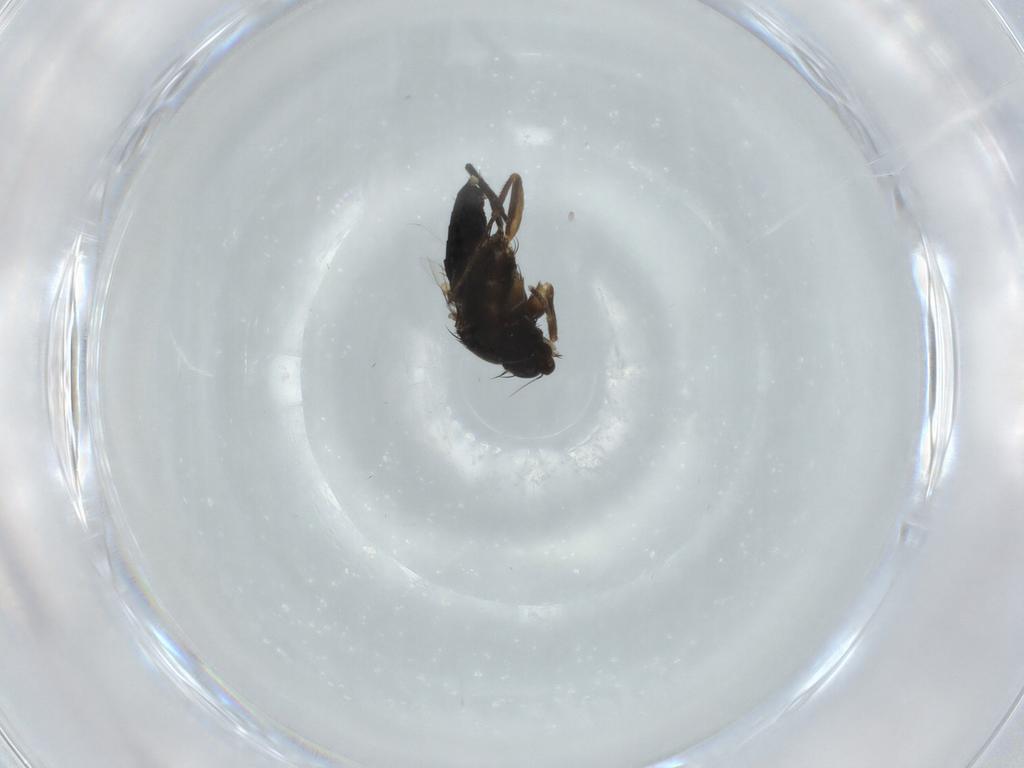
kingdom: Animalia
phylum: Arthropoda
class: Insecta
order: Diptera
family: Phoridae
